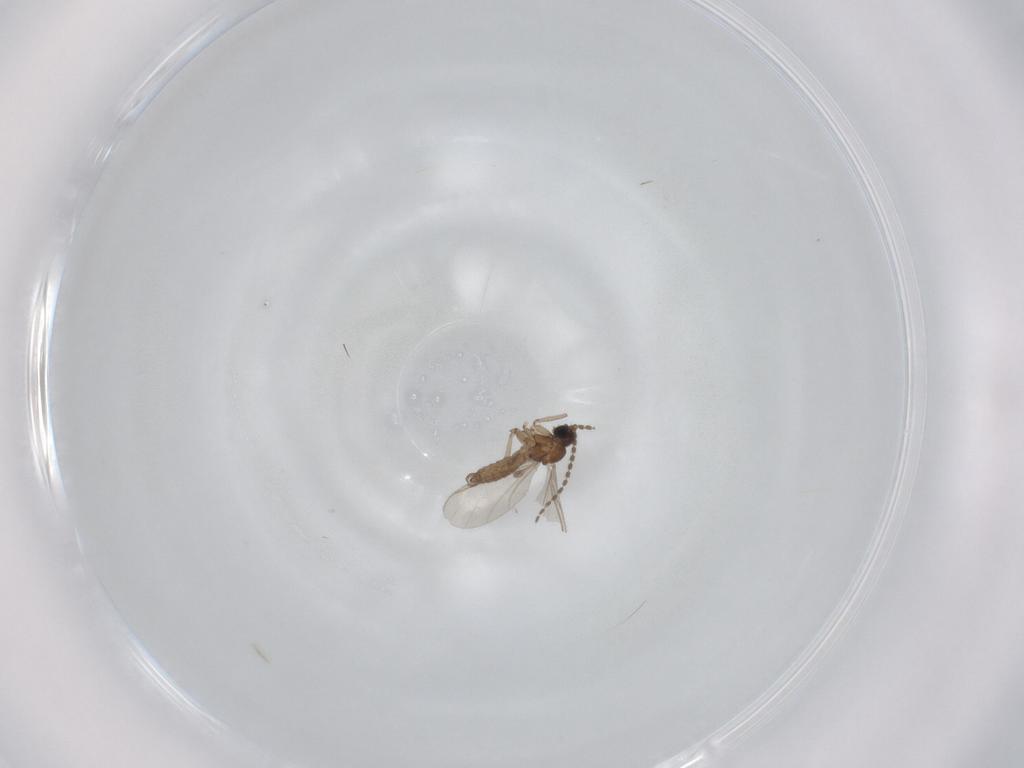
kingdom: Animalia
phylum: Arthropoda
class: Insecta
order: Diptera
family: Sciaridae
